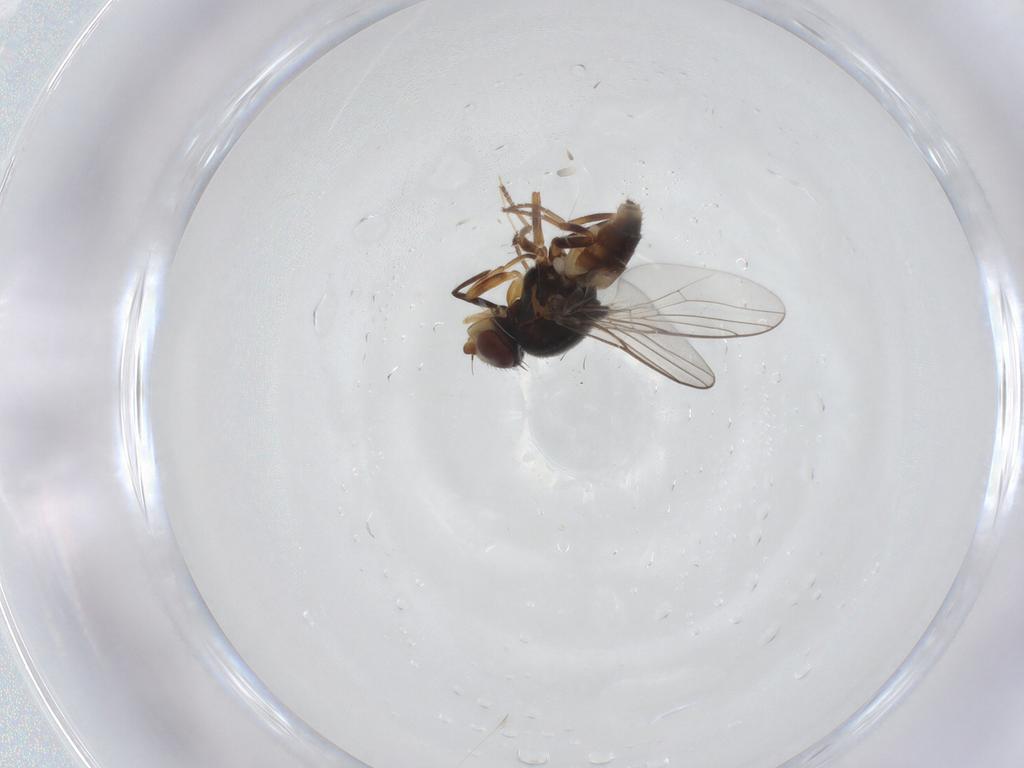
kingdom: Animalia
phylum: Arthropoda
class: Insecta
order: Diptera
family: Chloropidae
